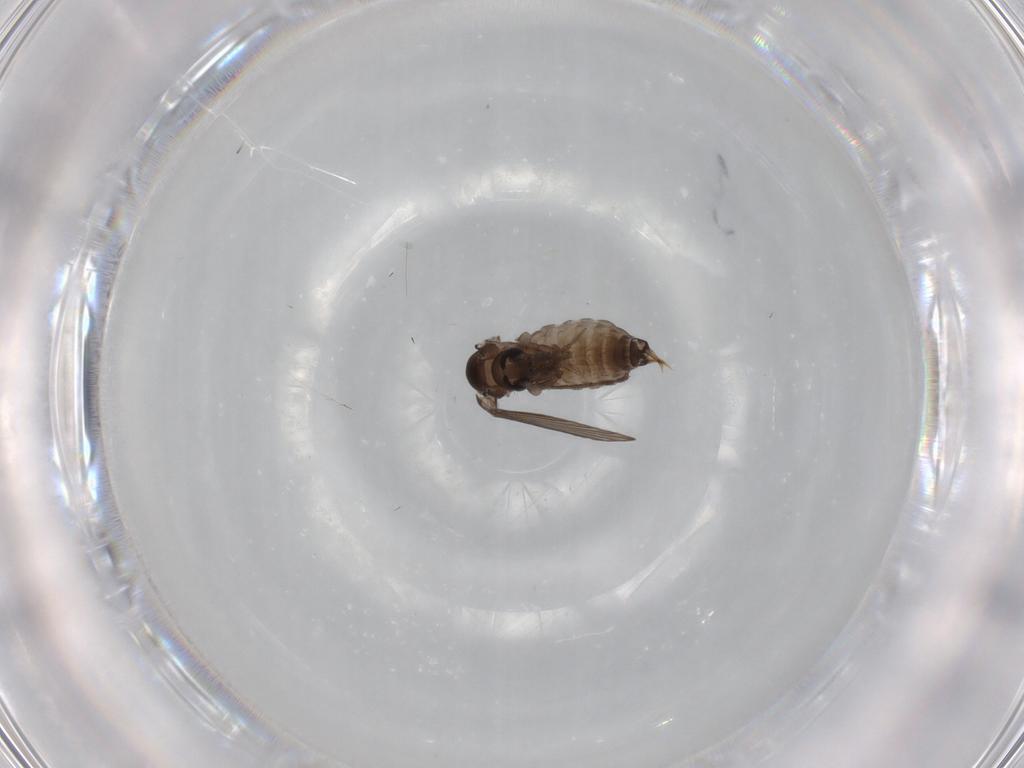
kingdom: Animalia
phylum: Arthropoda
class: Insecta
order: Diptera
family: Psychodidae
